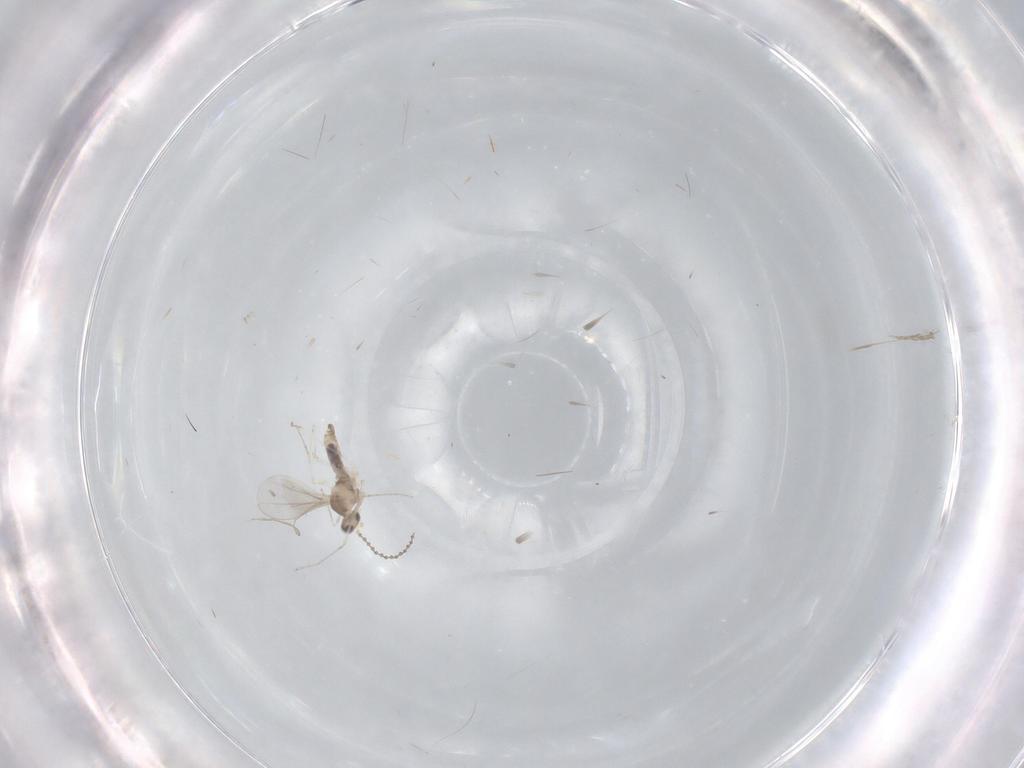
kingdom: Animalia
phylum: Arthropoda
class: Insecta
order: Diptera
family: Cecidomyiidae
